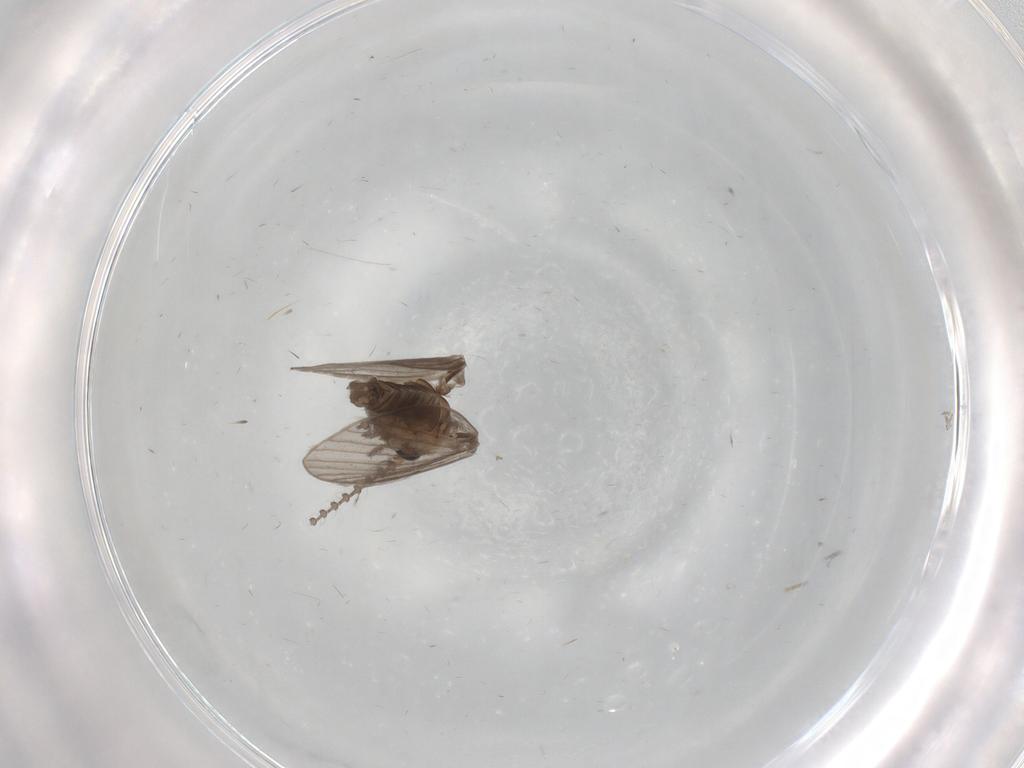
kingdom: Animalia
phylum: Arthropoda
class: Insecta
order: Diptera
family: Psychodidae
